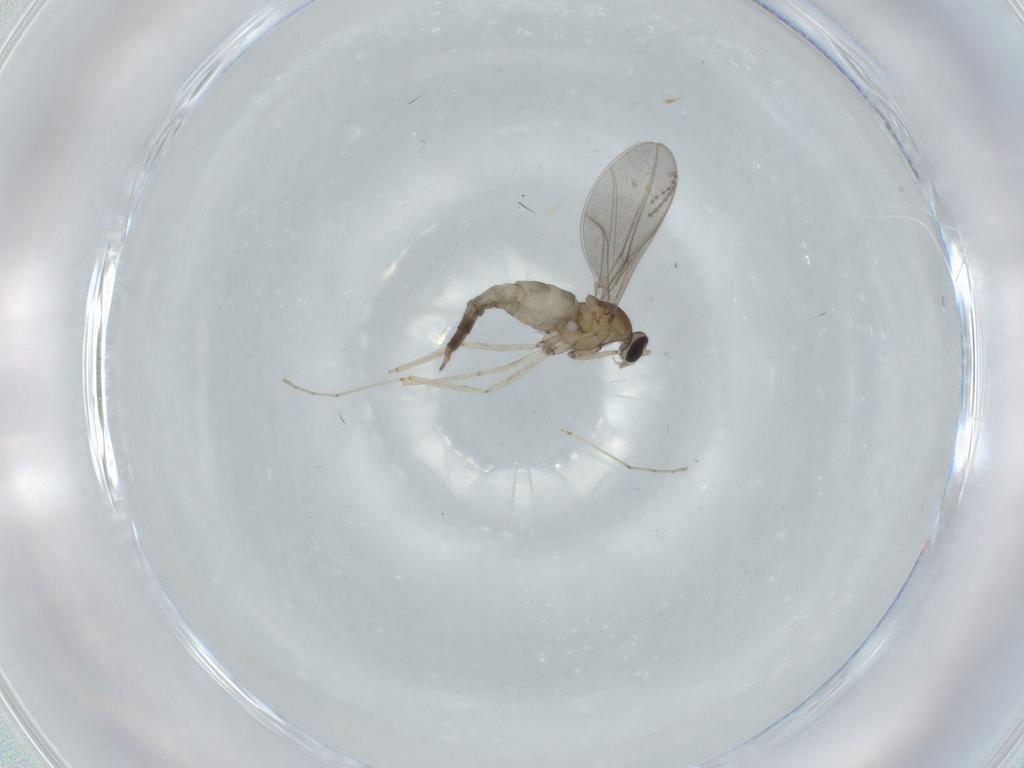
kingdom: Animalia
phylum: Arthropoda
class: Insecta
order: Diptera
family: Cecidomyiidae
